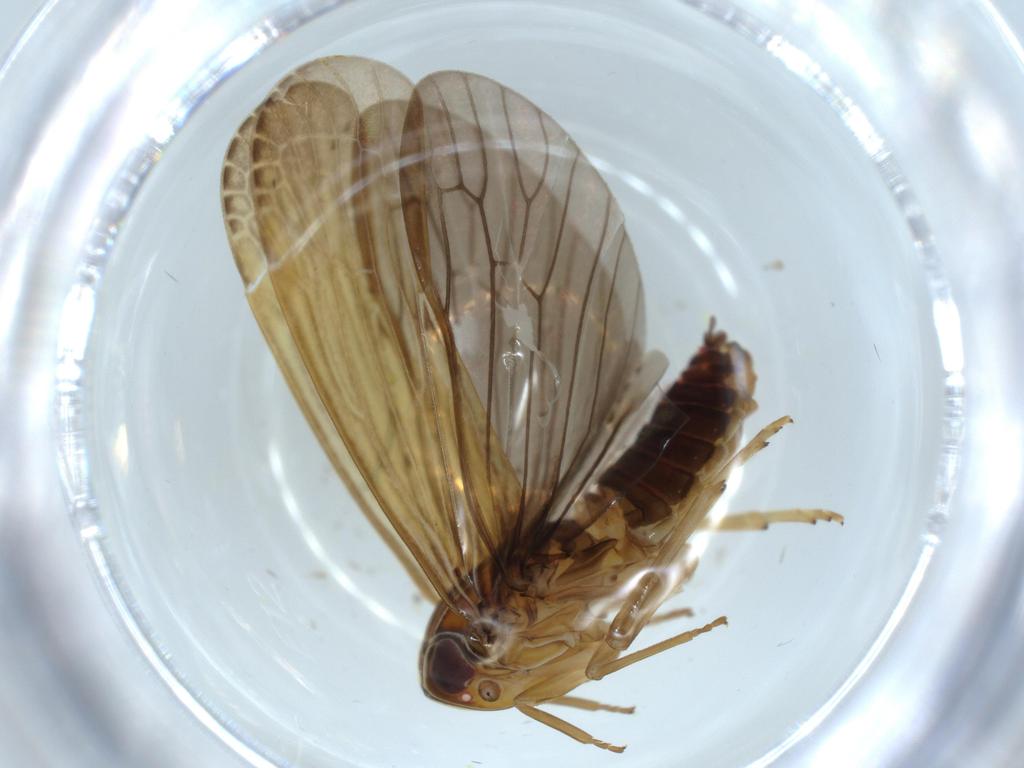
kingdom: Animalia
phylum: Arthropoda
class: Insecta
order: Hemiptera
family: Achilidae
